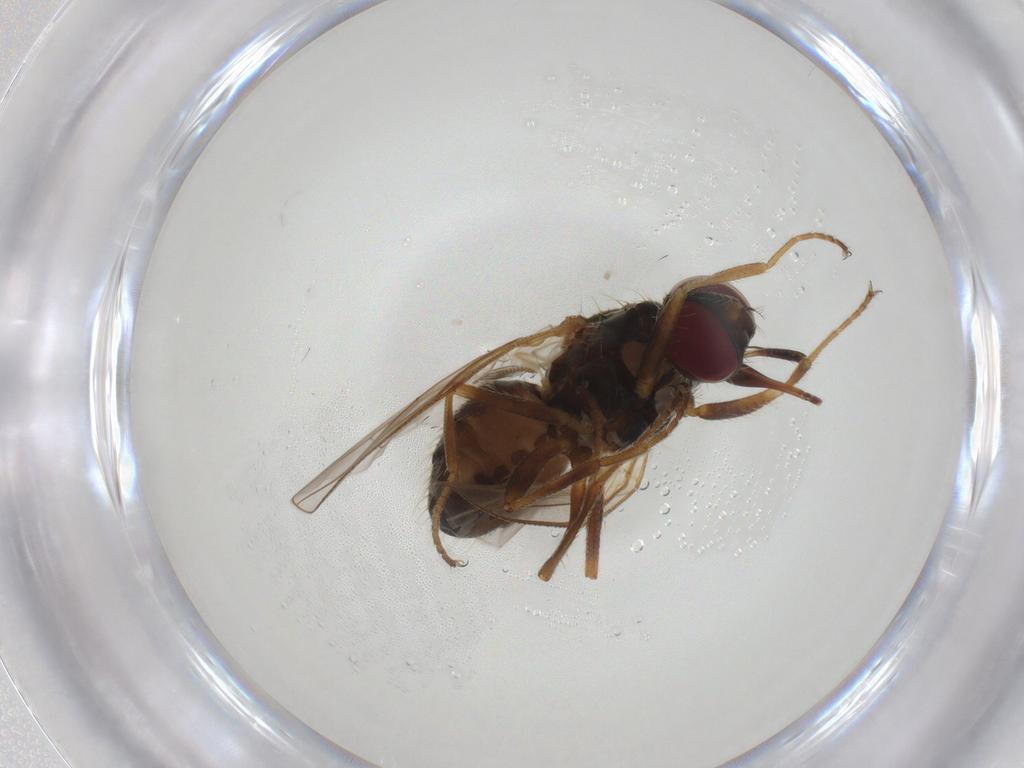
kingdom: Animalia
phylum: Arthropoda
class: Insecta
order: Diptera
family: Muscidae
